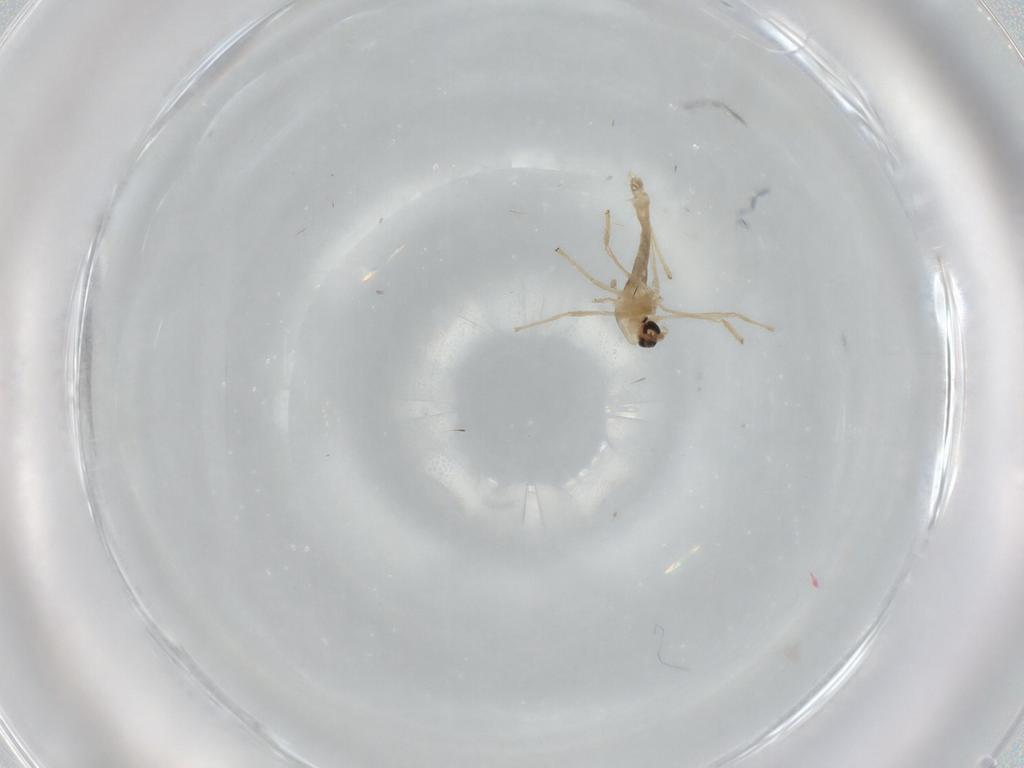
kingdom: Animalia
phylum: Arthropoda
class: Insecta
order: Diptera
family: Chironomidae
